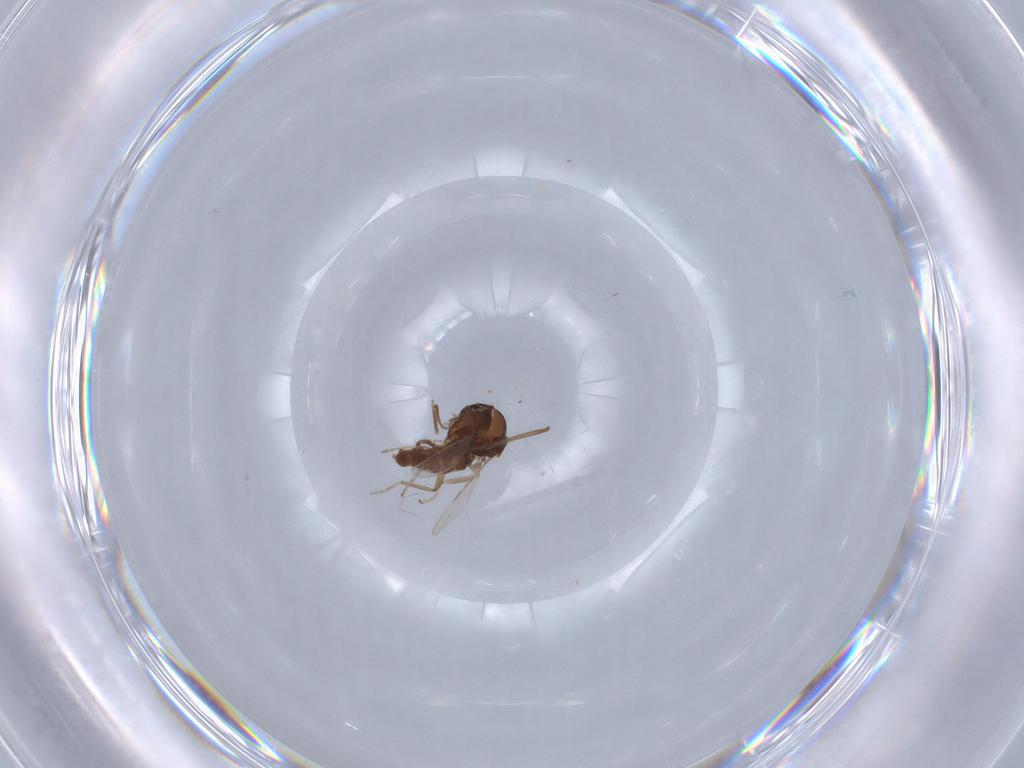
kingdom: Animalia
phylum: Arthropoda
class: Insecta
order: Diptera
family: Ceratopogonidae
